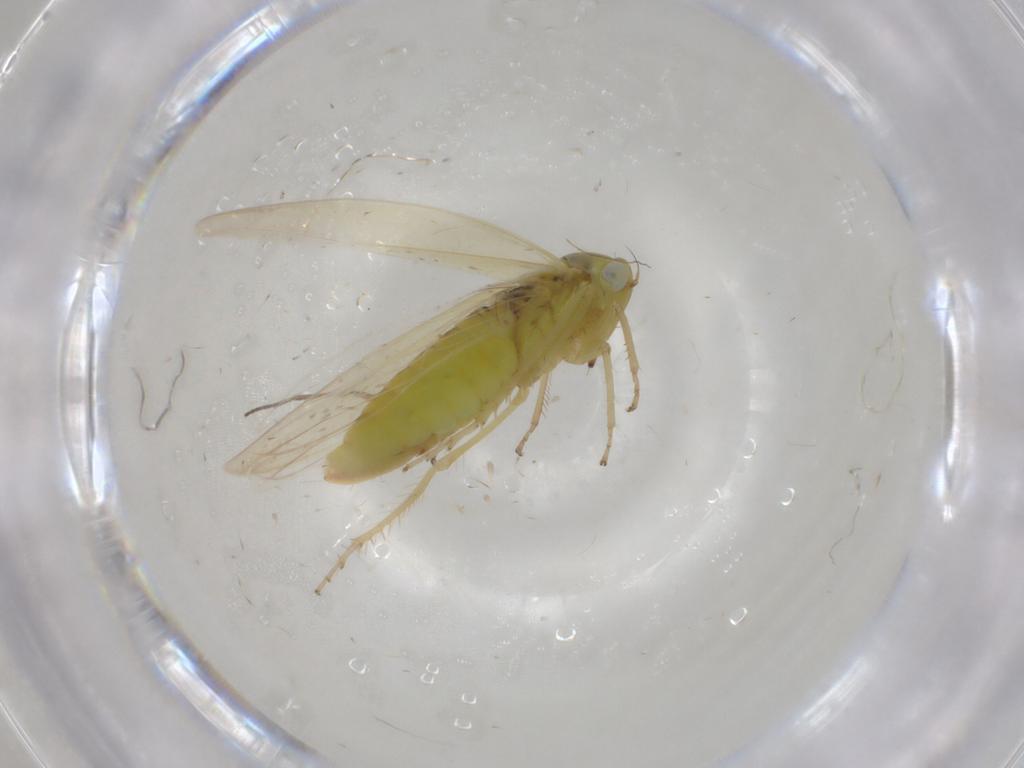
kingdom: Animalia
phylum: Arthropoda
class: Insecta
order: Hemiptera
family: Cicadellidae
